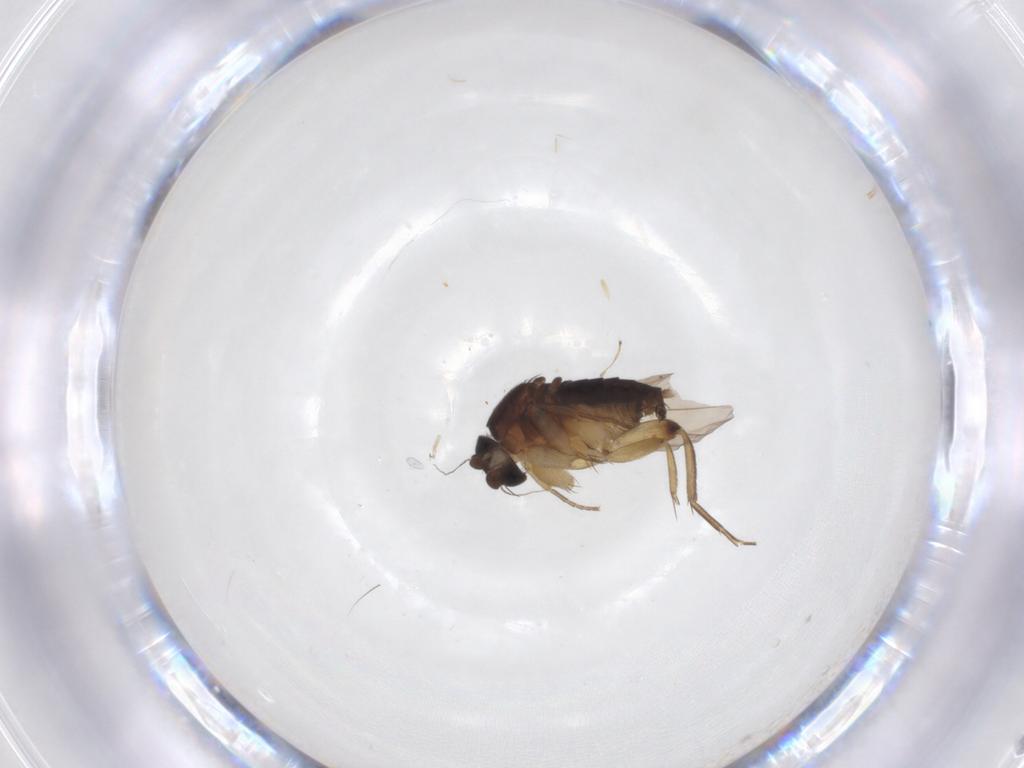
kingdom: Animalia
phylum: Arthropoda
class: Insecta
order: Diptera
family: Phoridae
